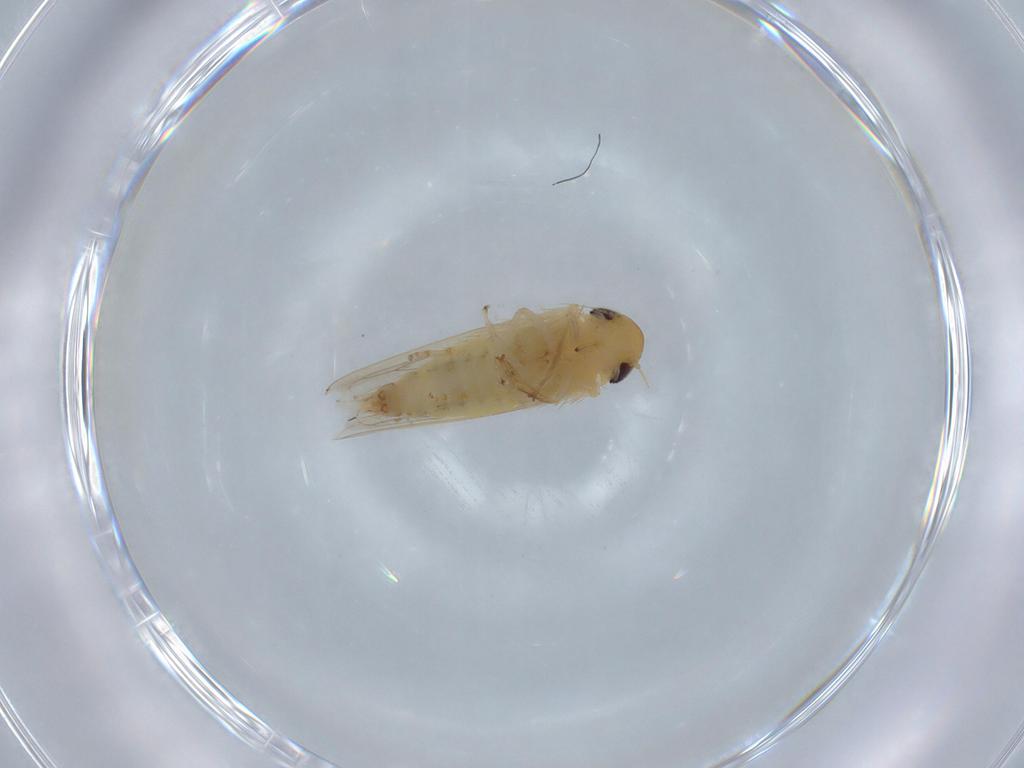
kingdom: Animalia
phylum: Arthropoda
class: Insecta
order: Hemiptera
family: Cicadellidae
